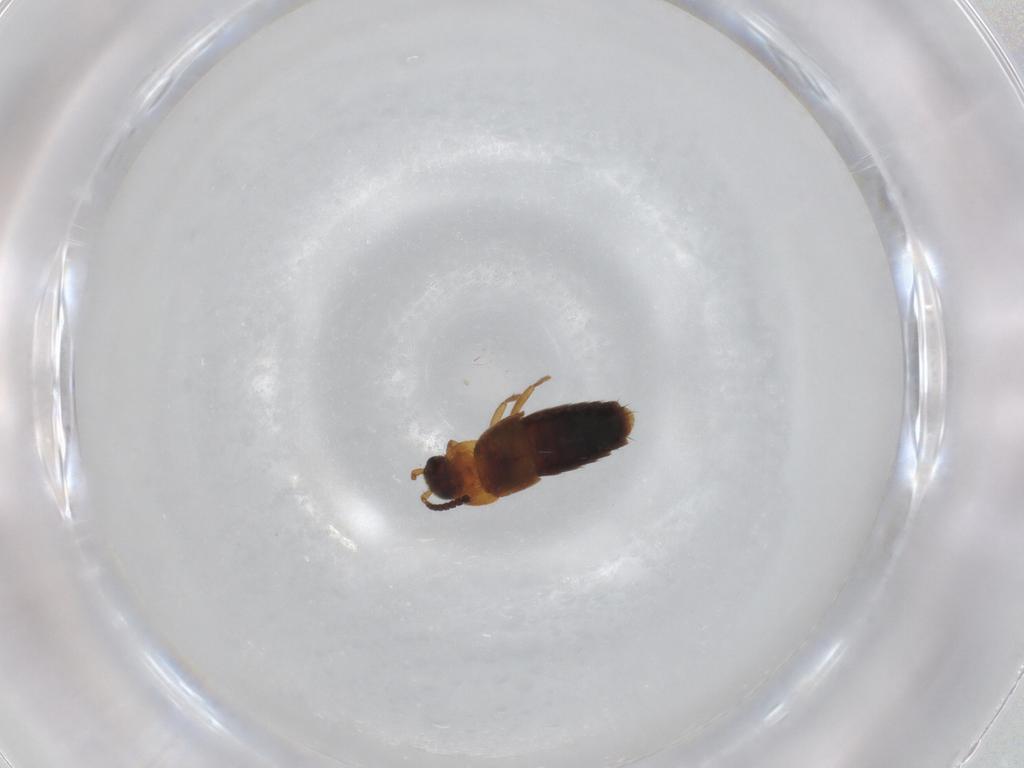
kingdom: Animalia
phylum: Arthropoda
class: Insecta
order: Coleoptera
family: Staphylinidae
